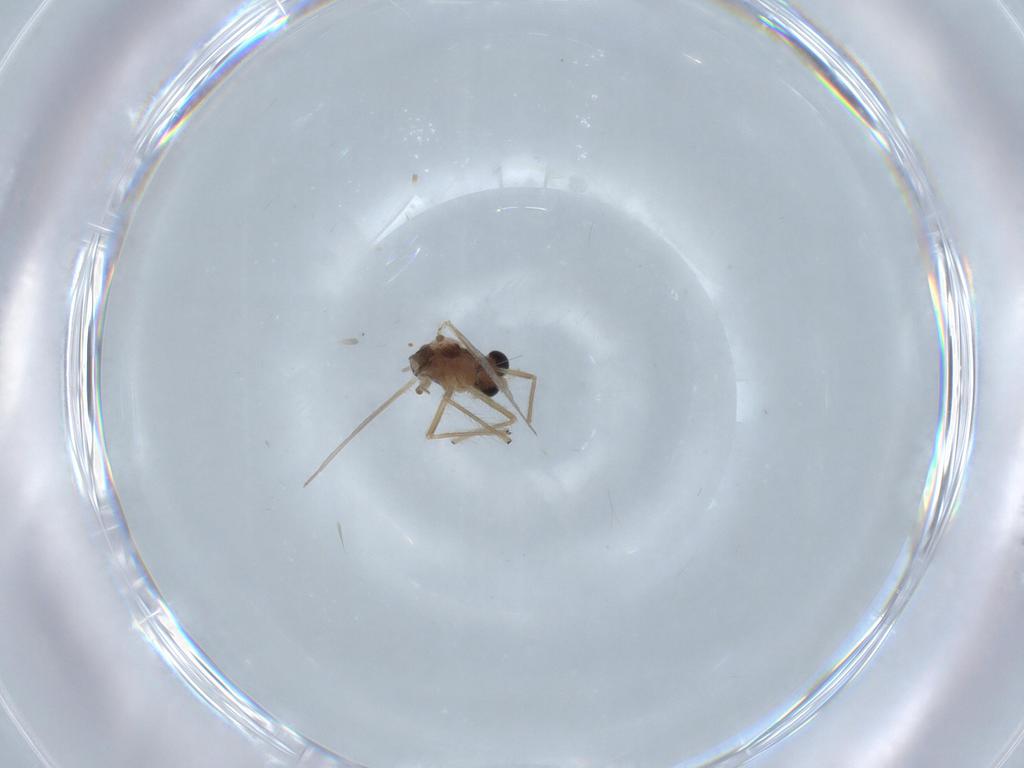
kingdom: Animalia
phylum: Arthropoda
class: Insecta
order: Diptera
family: Chironomidae
